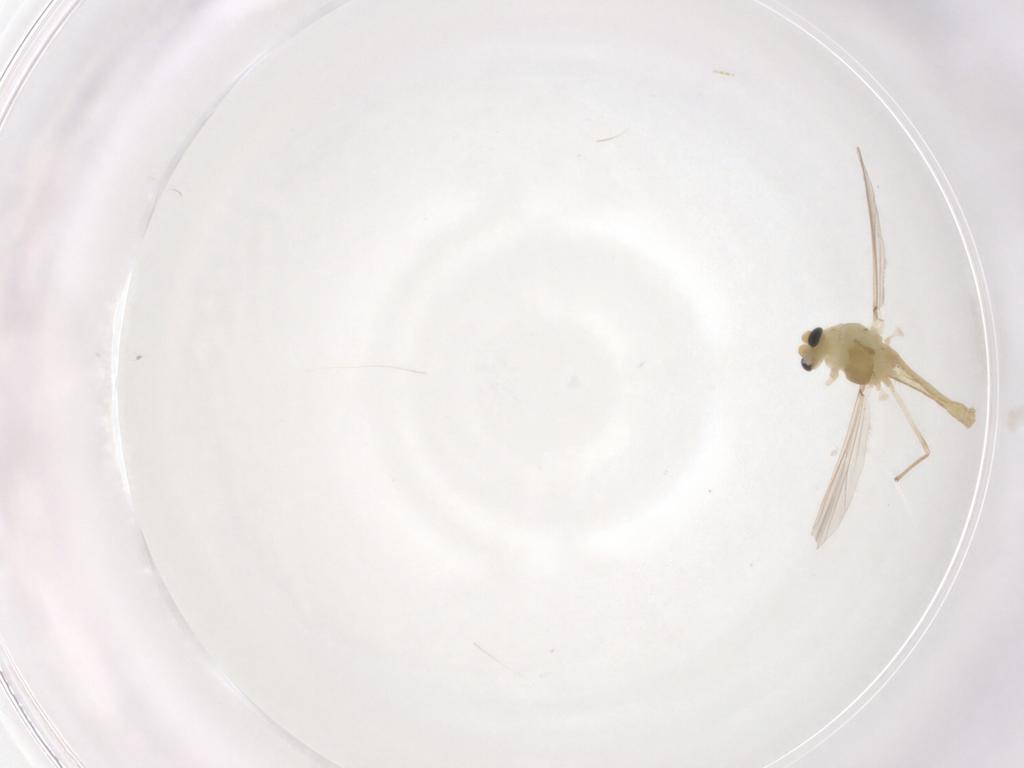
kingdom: Animalia
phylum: Arthropoda
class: Insecta
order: Diptera
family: Chironomidae
